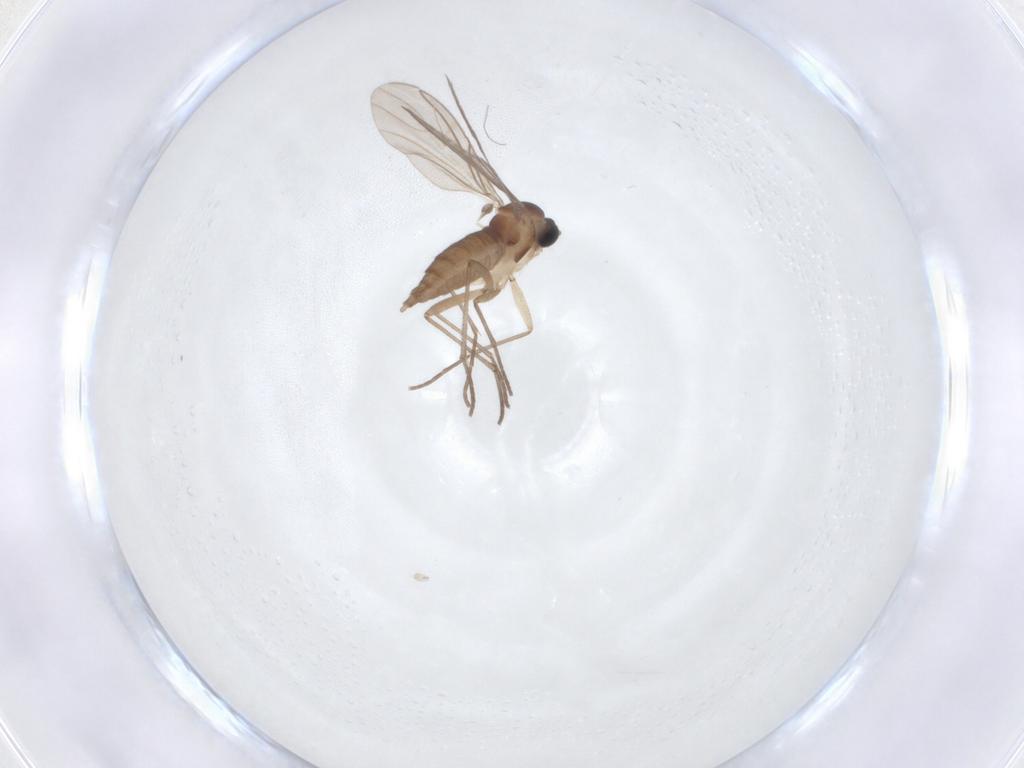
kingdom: Animalia
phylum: Arthropoda
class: Insecta
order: Diptera
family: Sciaridae
